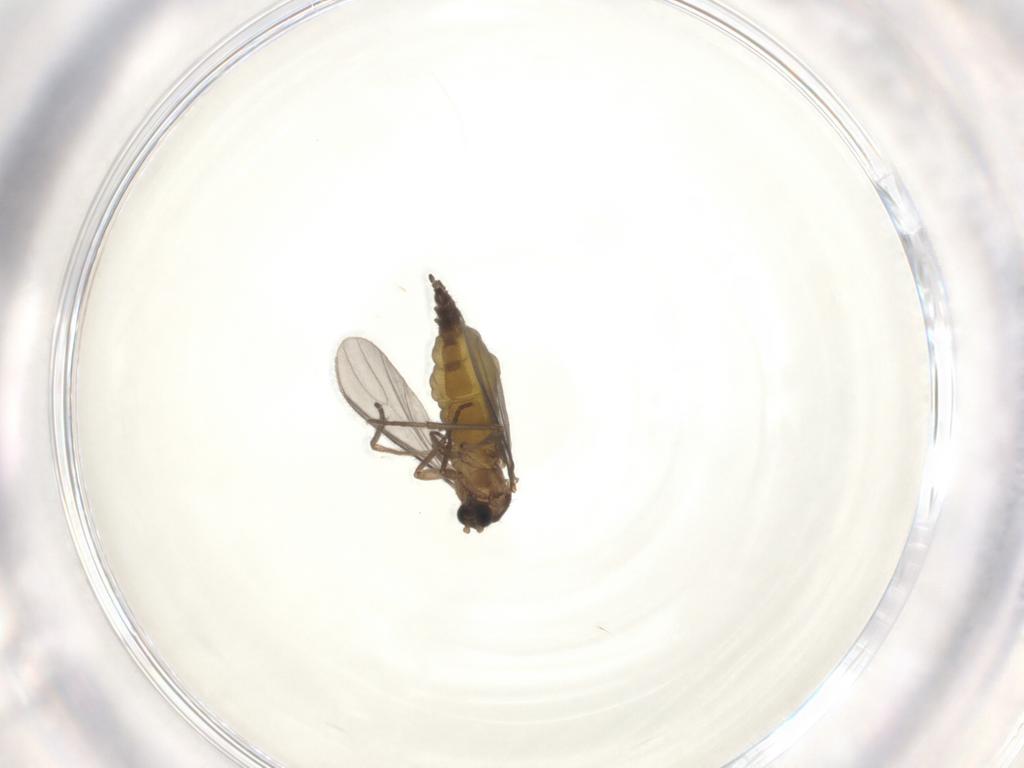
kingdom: Animalia
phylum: Arthropoda
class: Insecta
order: Diptera
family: Sciaridae
